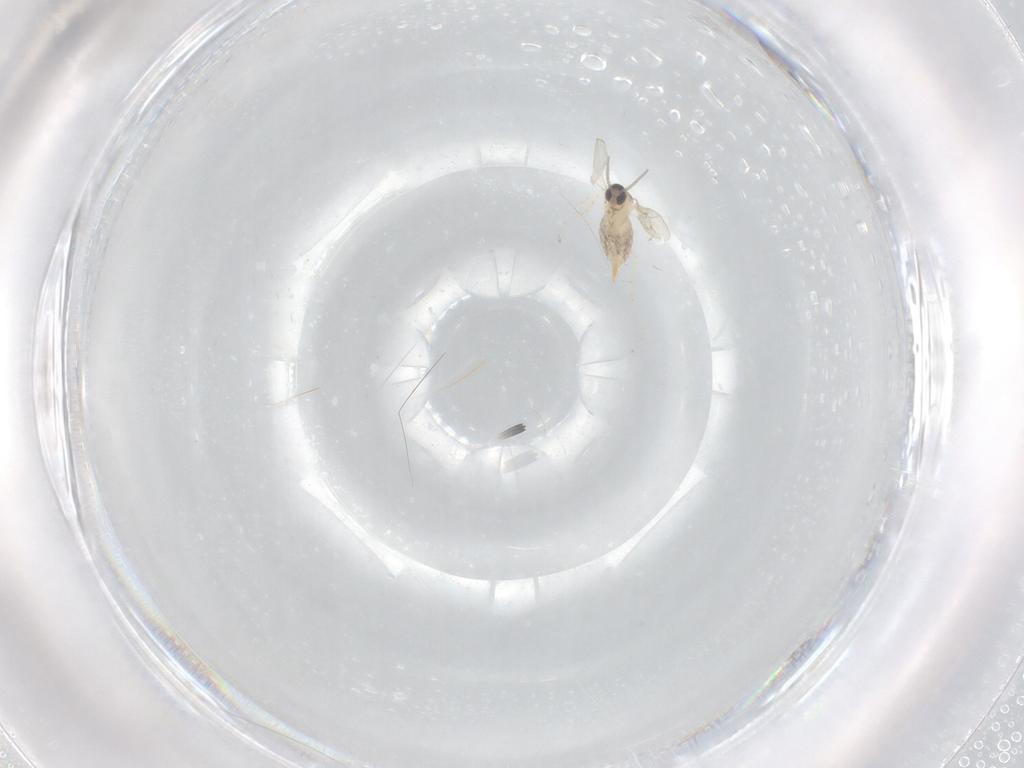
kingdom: Animalia
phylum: Arthropoda
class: Insecta
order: Diptera
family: Cecidomyiidae
